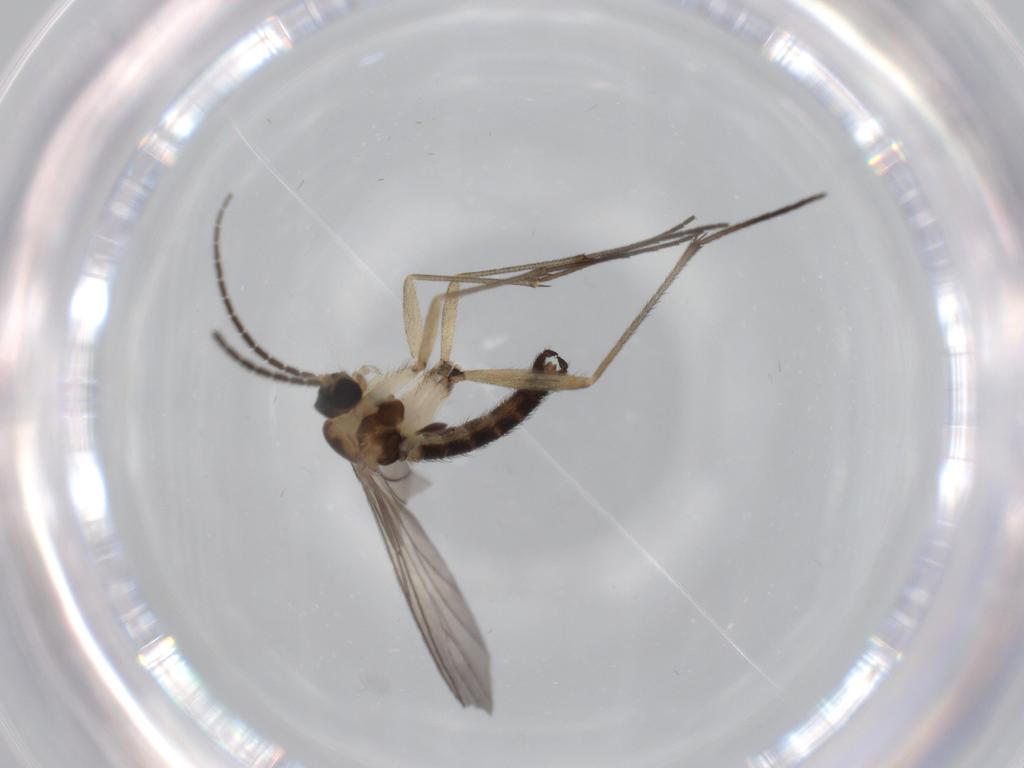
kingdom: Animalia
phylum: Arthropoda
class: Insecta
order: Diptera
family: Sciaridae
